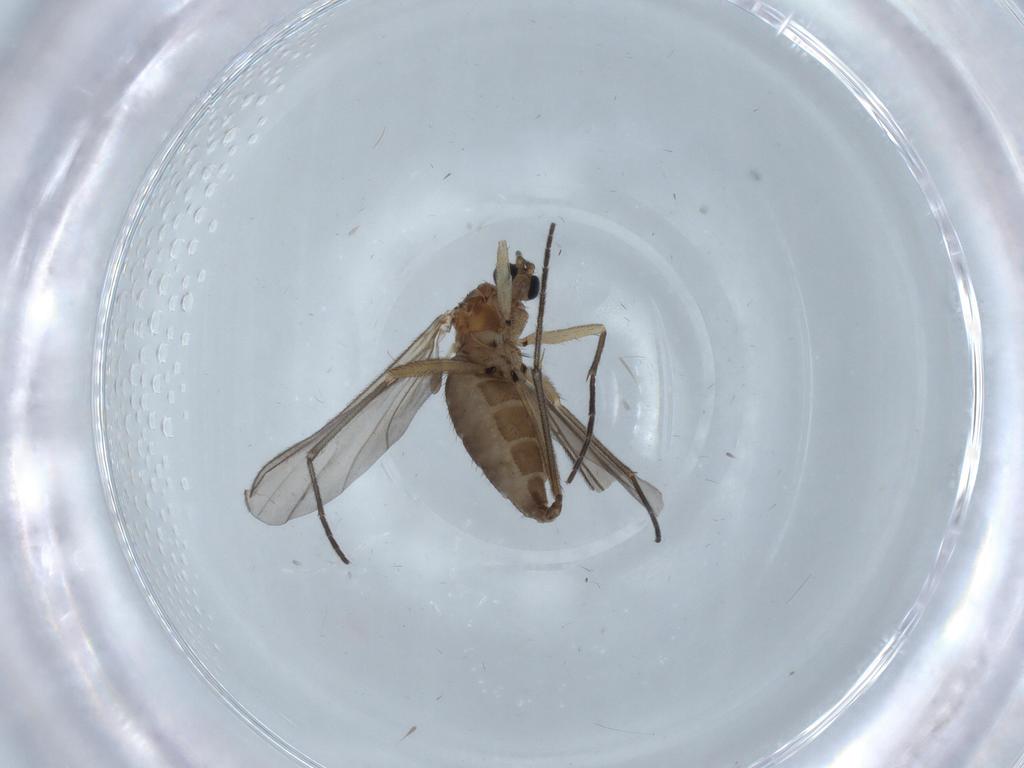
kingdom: Animalia
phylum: Arthropoda
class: Insecta
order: Diptera
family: Sciaridae
